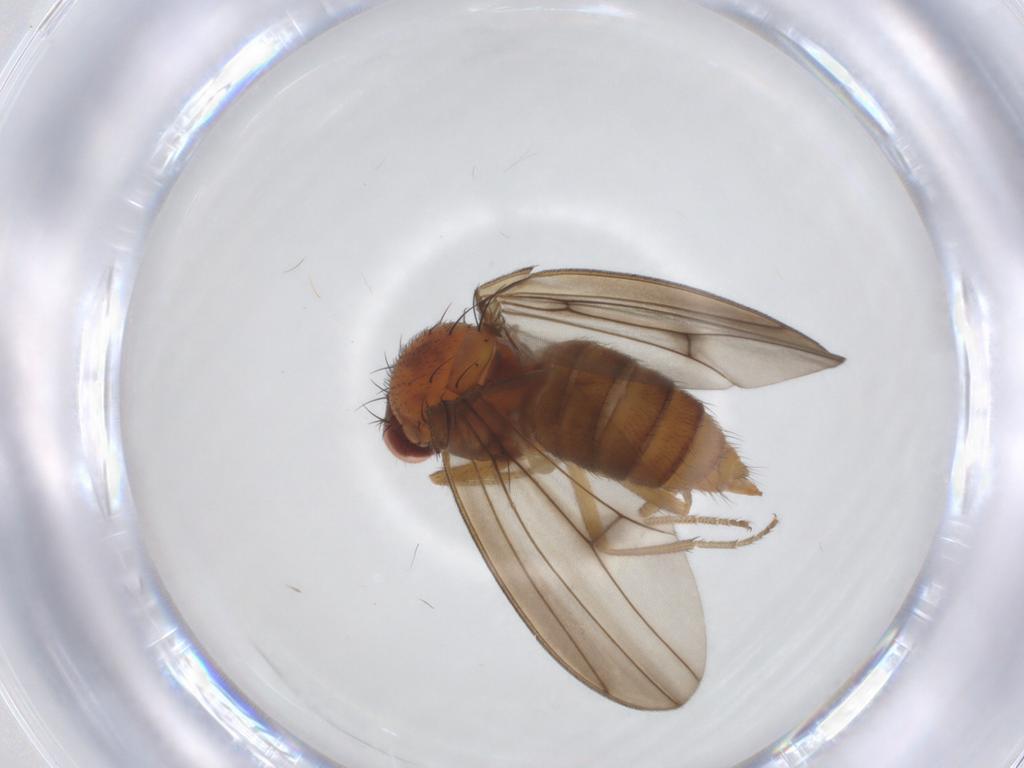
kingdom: Animalia
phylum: Arthropoda
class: Insecta
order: Diptera
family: Drosophilidae
